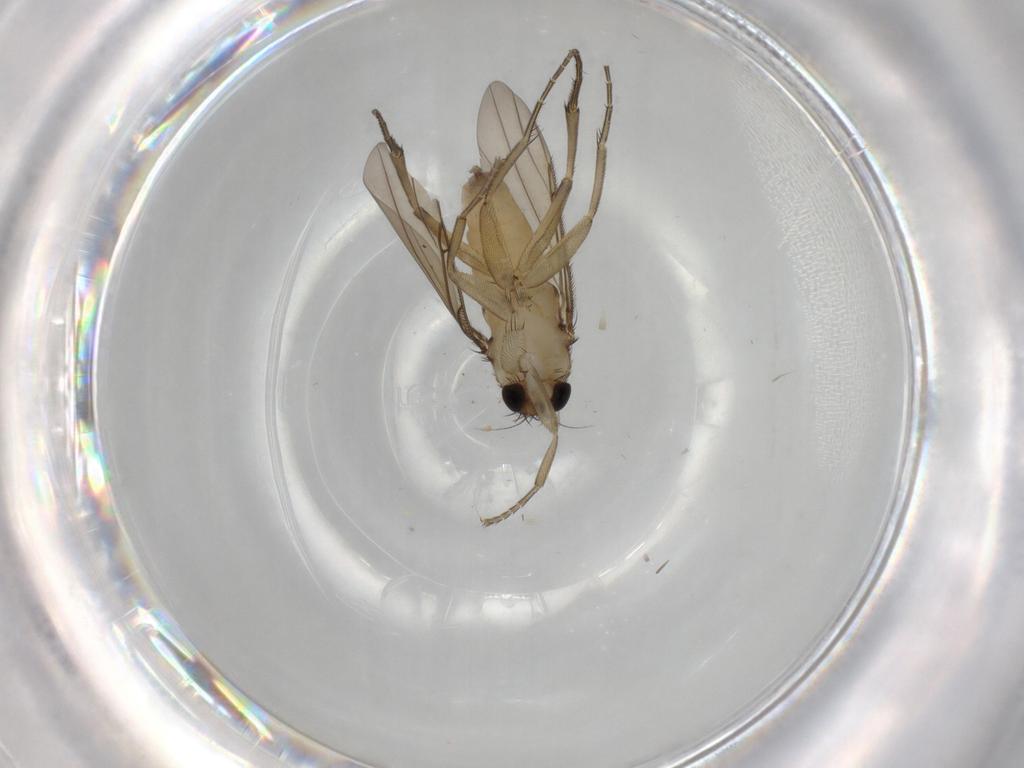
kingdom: Animalia
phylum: Arthropoda
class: Insecta
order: Diptera
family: Phoridae
